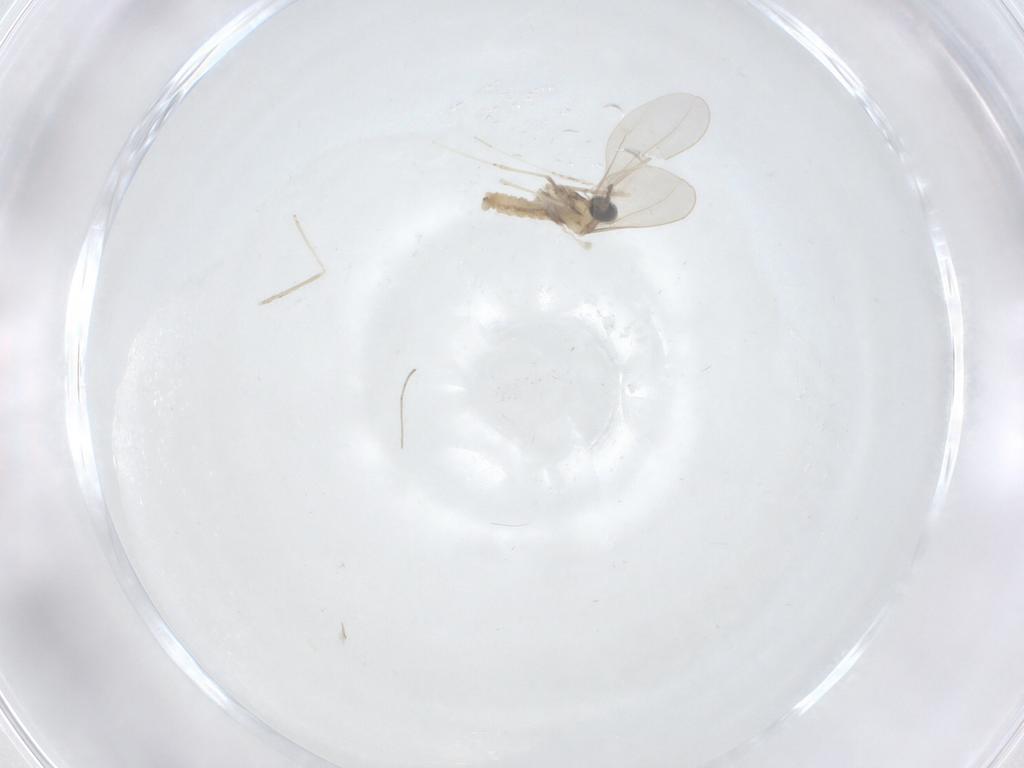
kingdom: Animalia
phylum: Arthropoda
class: Insecta
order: Diptera
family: Cecidomyiidae
